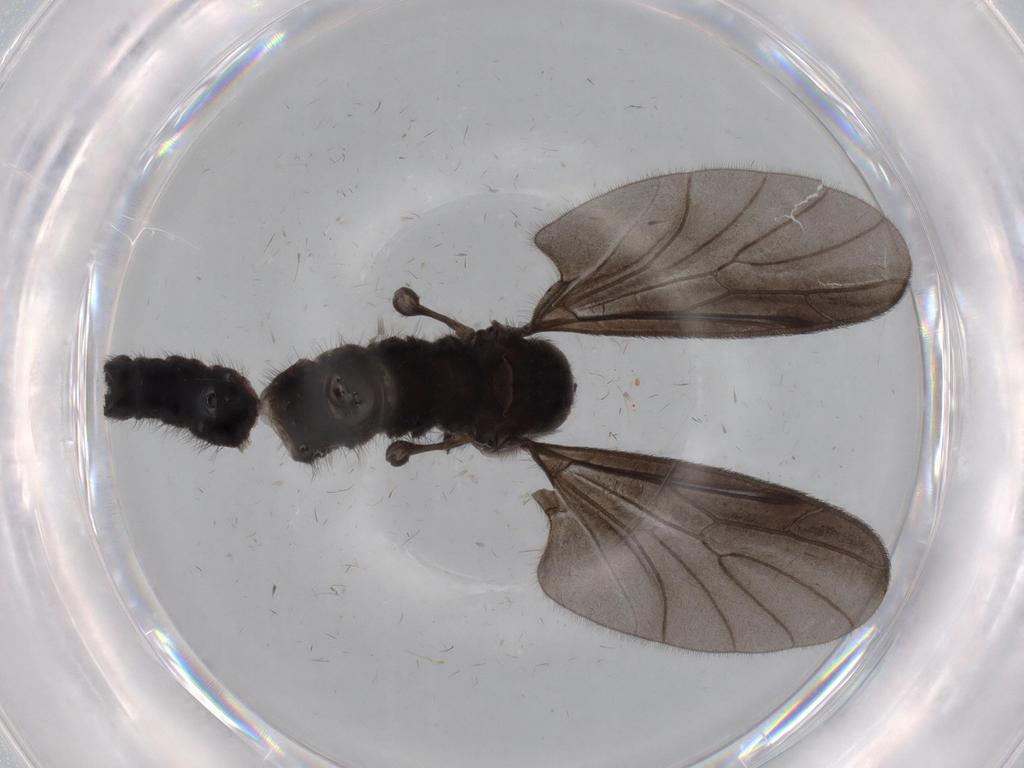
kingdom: Animalia
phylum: Arthropoda
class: Insecta
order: Diptera
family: Phoridae
